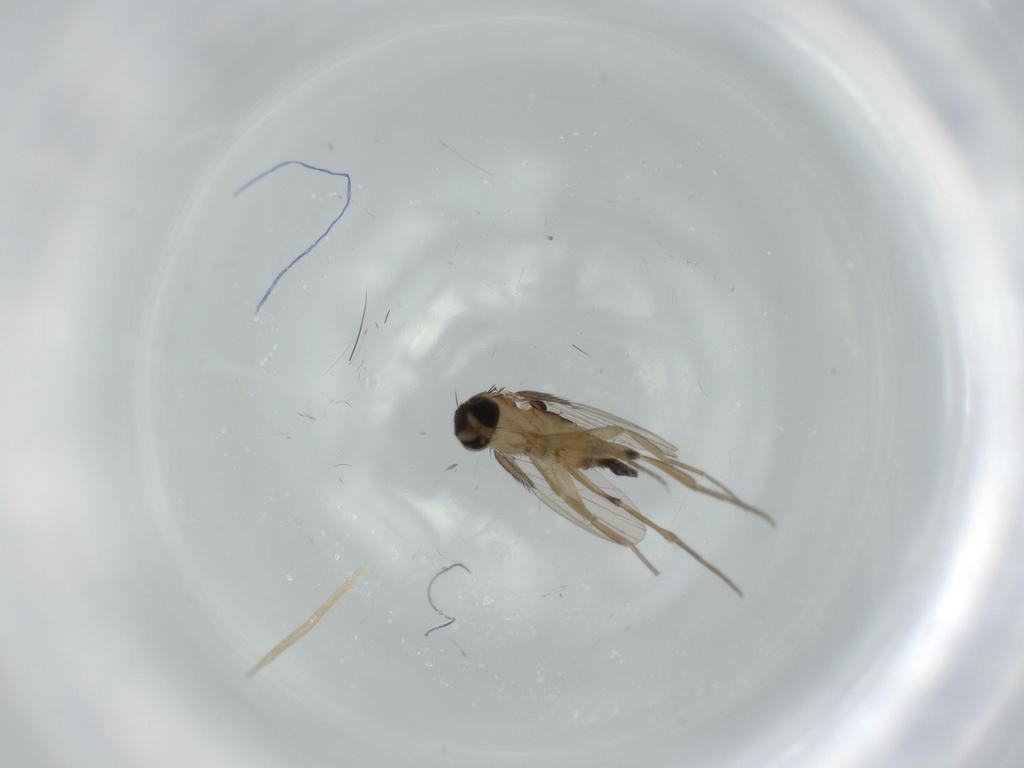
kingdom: Animalia
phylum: Arthropoda
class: Insecta
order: Diptera
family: Phoridae
